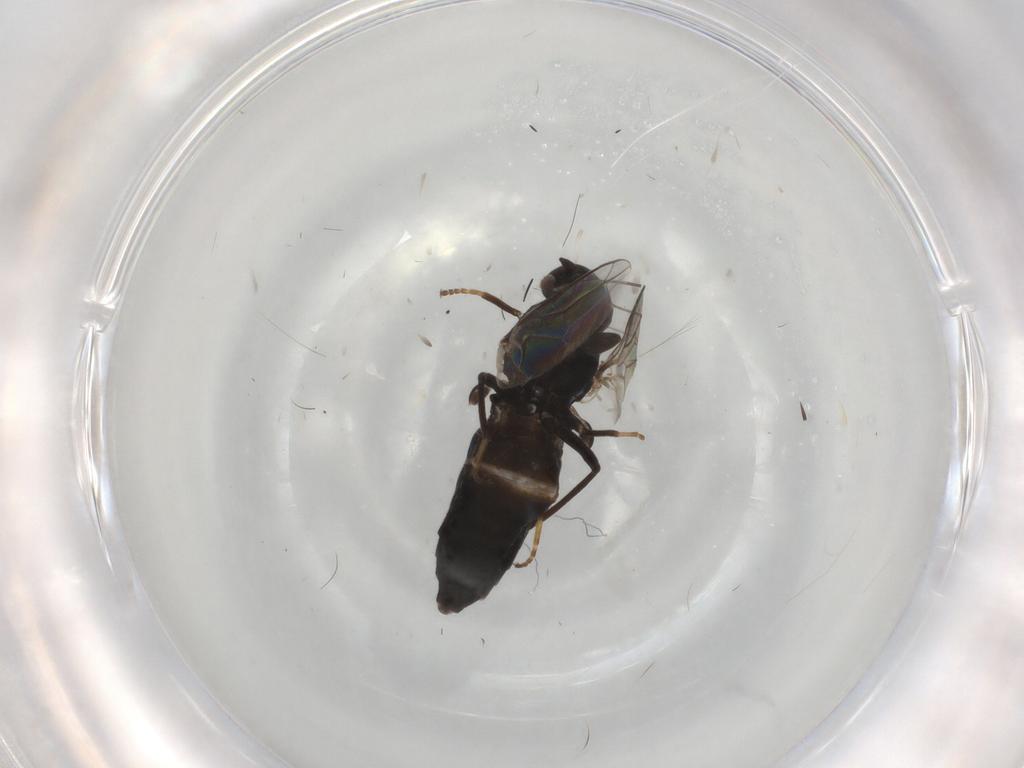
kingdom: Animalia
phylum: Arthropoda
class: Insecta
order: Diptera
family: Scenopinidae
